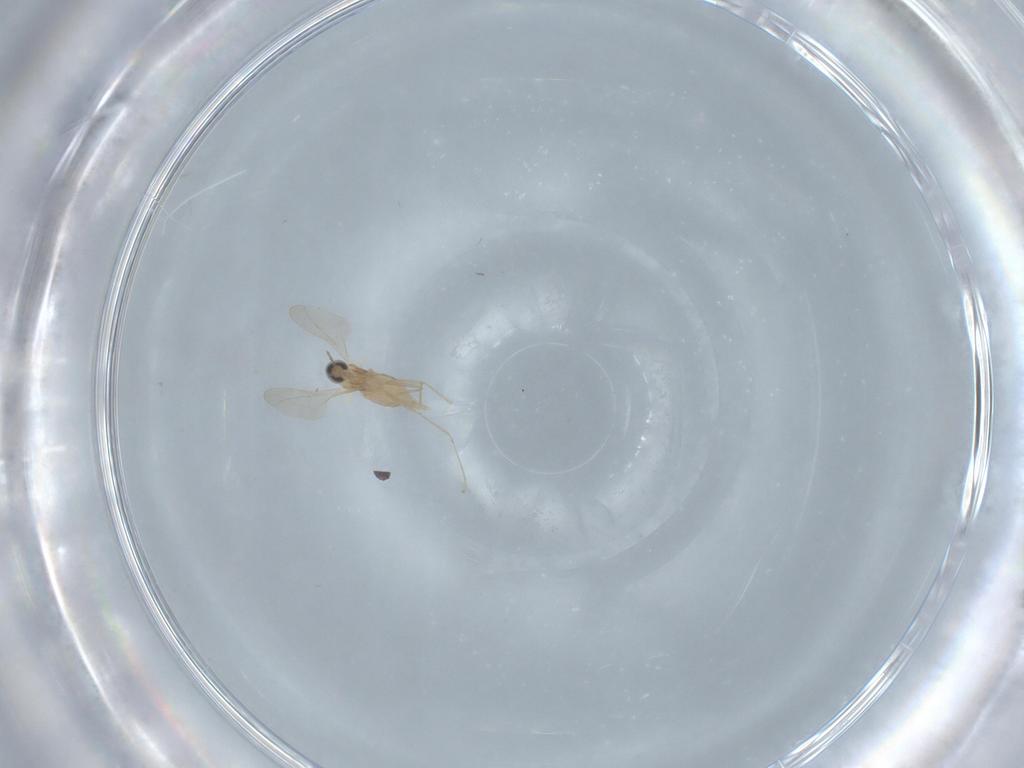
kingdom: Animalia
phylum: Arthropoda
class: Insecta
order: Diptera
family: Cecidomyiidae
